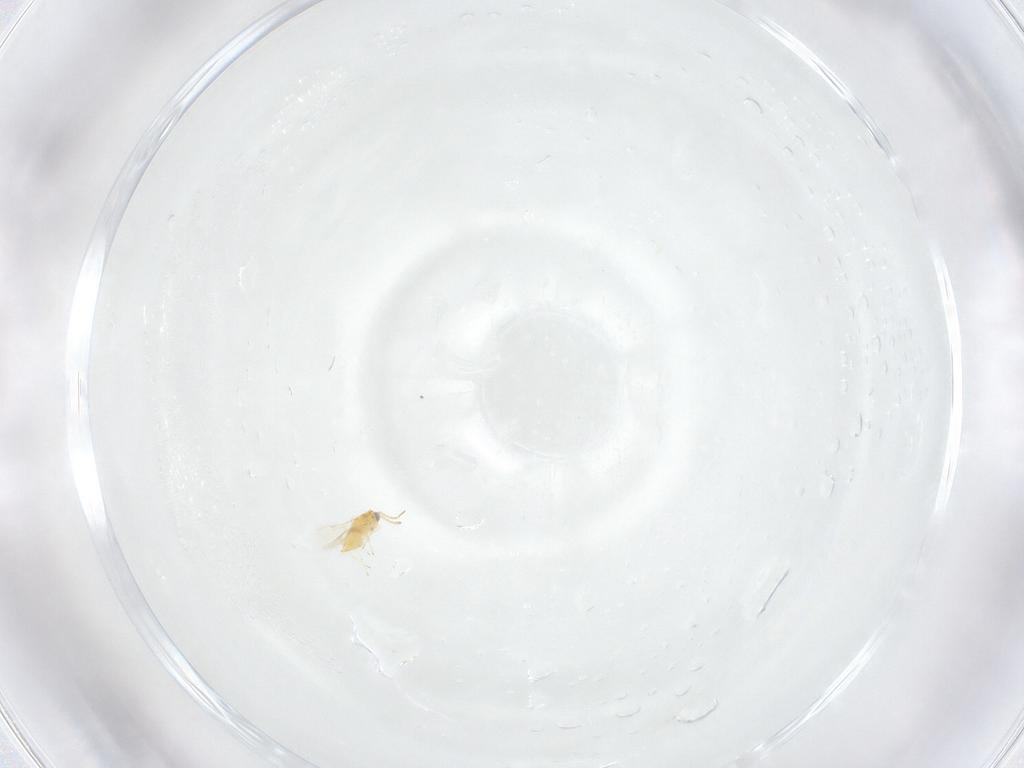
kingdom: Animalia
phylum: Arthropoda
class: Insecta
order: Hymenoptera
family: Aphelinidae
